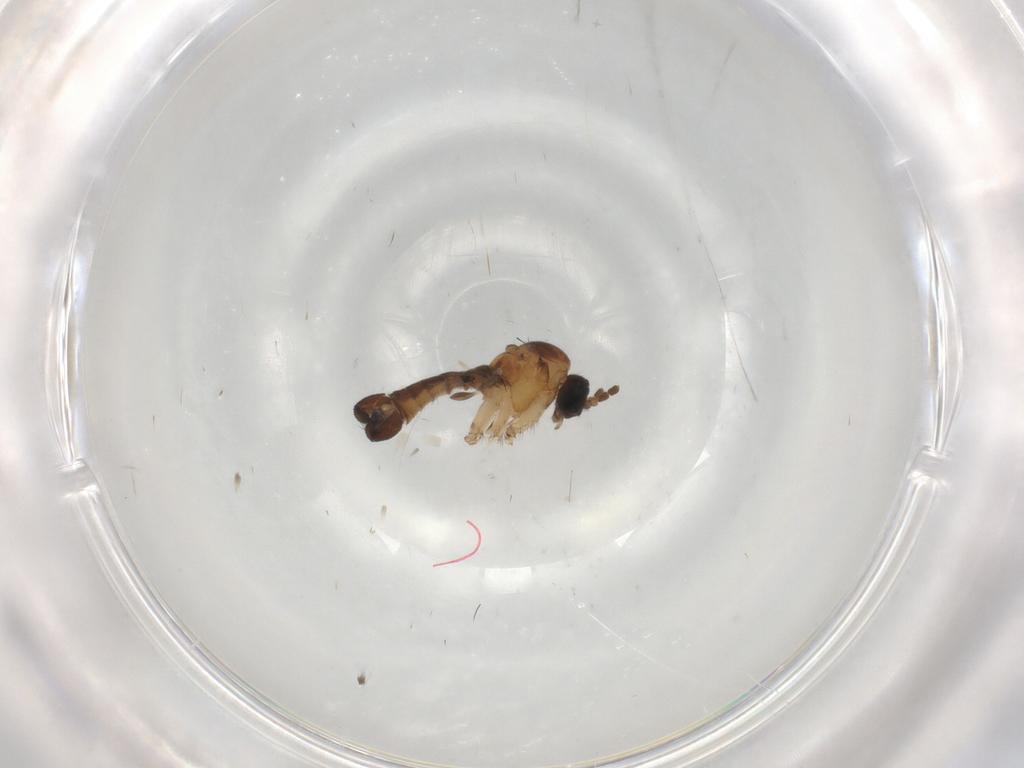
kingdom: Animalia
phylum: Arthropoda
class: Insecta
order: Diptera
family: Sciaridae
